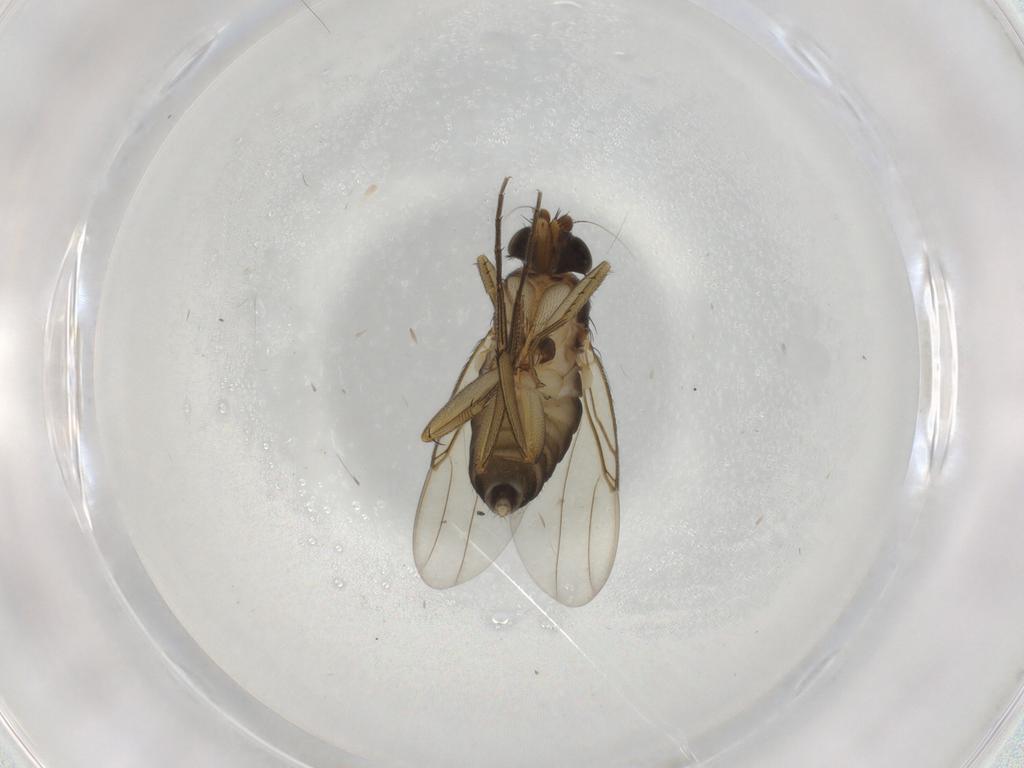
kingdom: Animalia
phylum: Arthropoda
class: Insecta
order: Diptera
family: Phoridae
